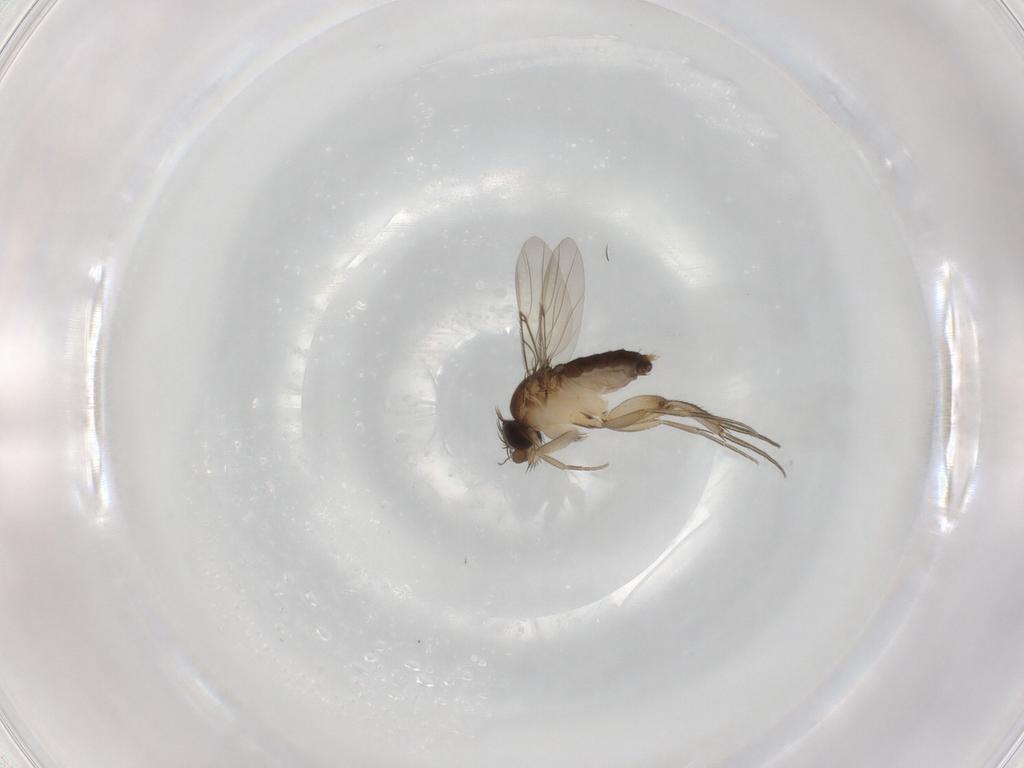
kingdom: Animalia
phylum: Arthropoda
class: Insecta
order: Diptera
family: Phoridae
